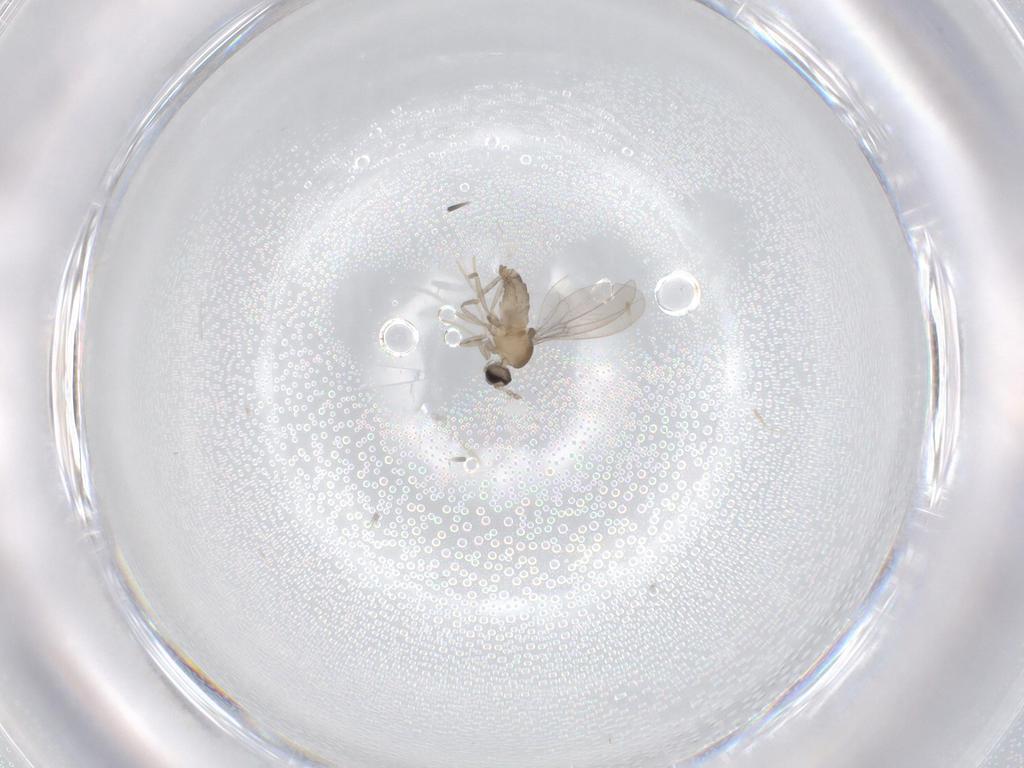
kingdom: Animalia
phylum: Arthropoda
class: Insecta
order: Diptera
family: Cecidomyiidae
